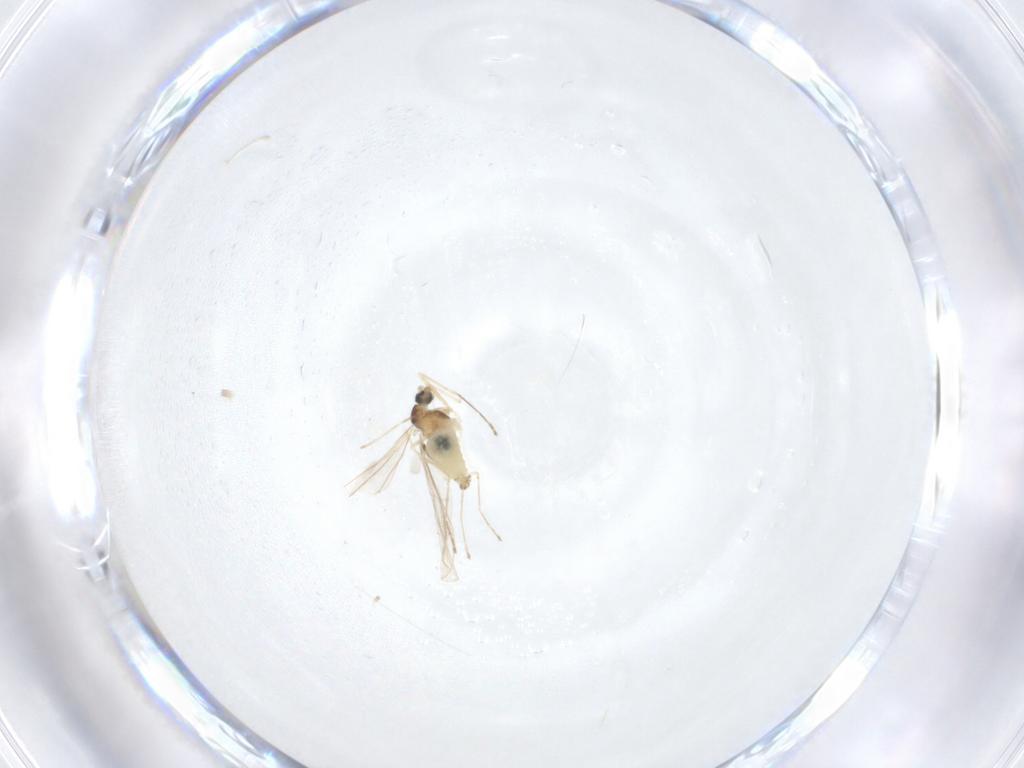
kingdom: Animalia
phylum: Arthropoda
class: Insecta
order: Diptera
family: Sciaridae
